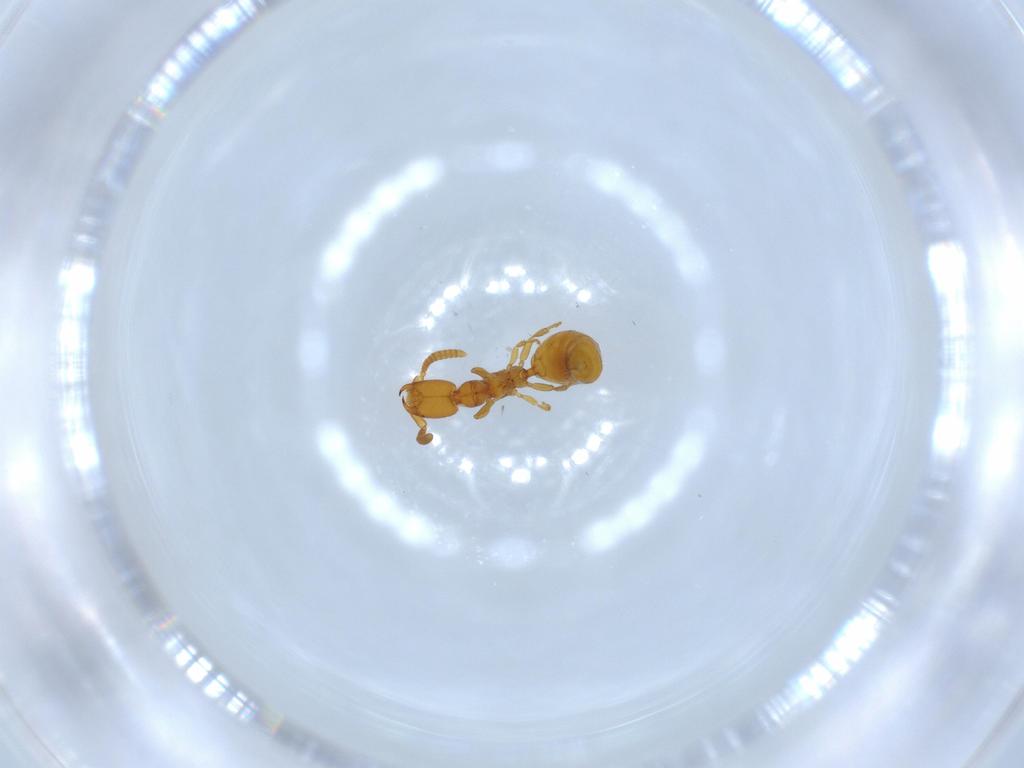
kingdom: Animalia
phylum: Arthropoda
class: Insecta
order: Hymenoptera
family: Bethylidae
